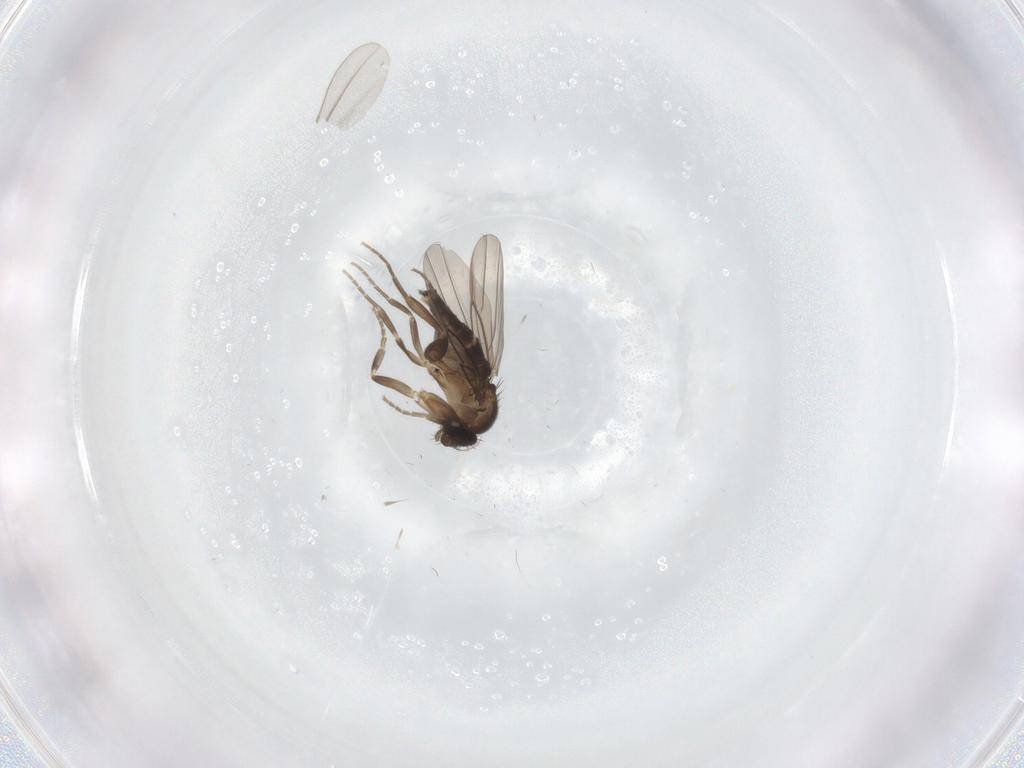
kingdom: Animalia
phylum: Arthropoda
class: Insecta
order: Diptera
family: Sciaridae
